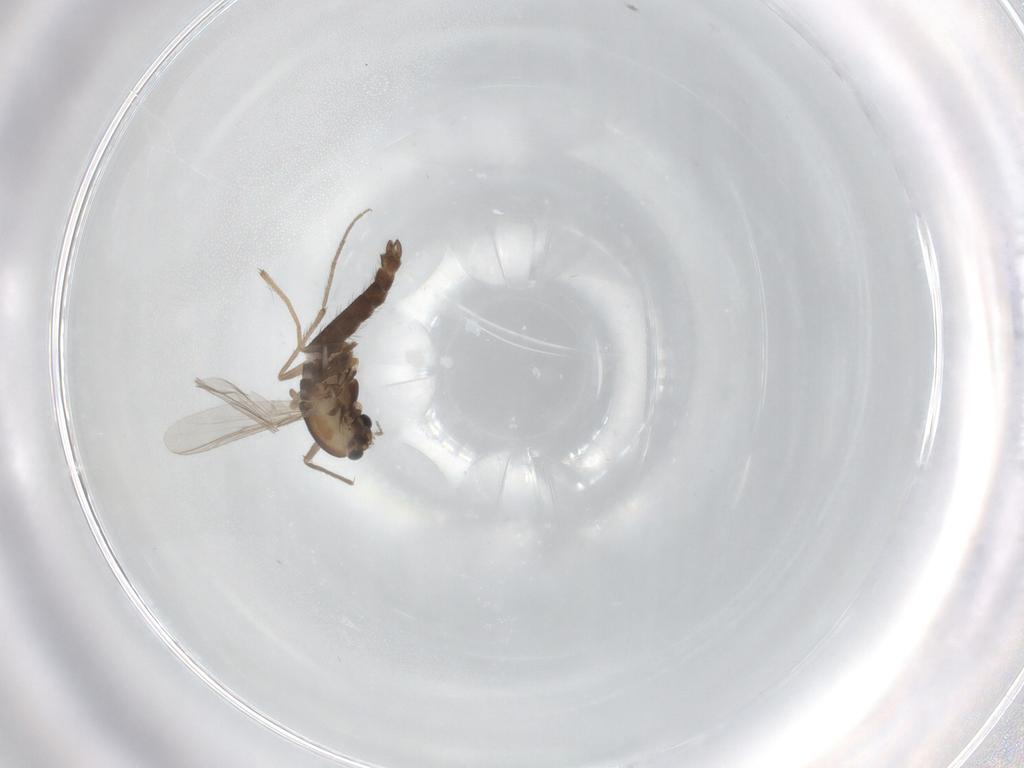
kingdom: Animalia
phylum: Arthropoda
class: Insecta
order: Diptera
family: Chironomidae
